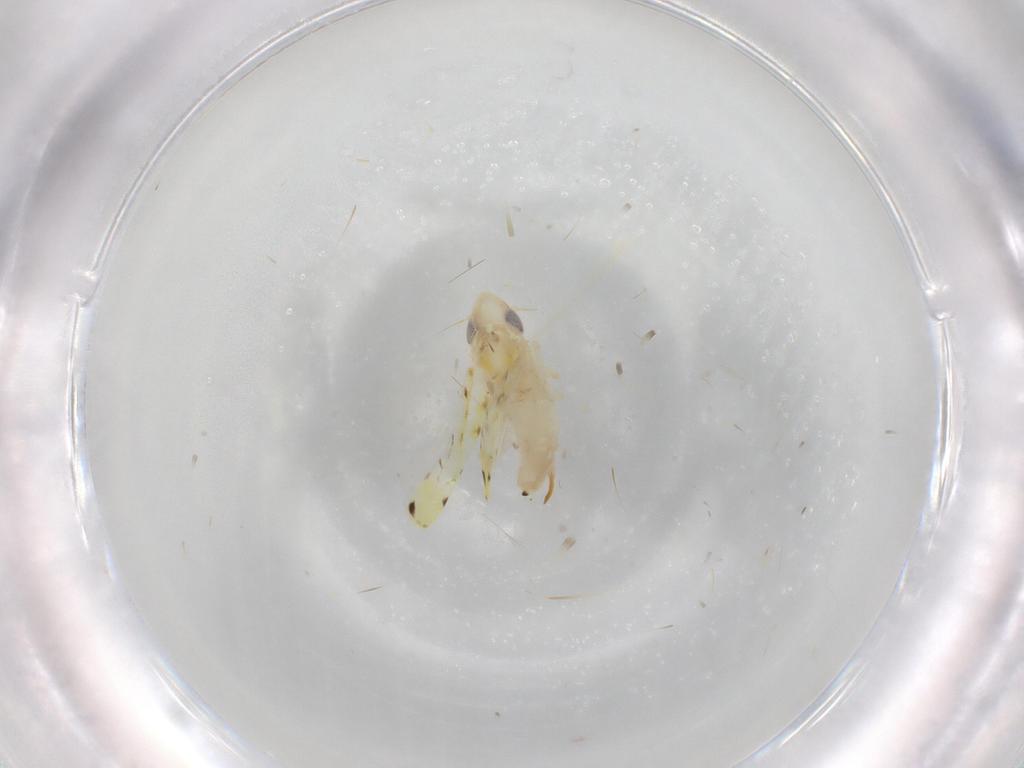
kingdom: Animalia
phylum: Arthropoda
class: Insecta
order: Hemiptera
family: Cicadellidae
